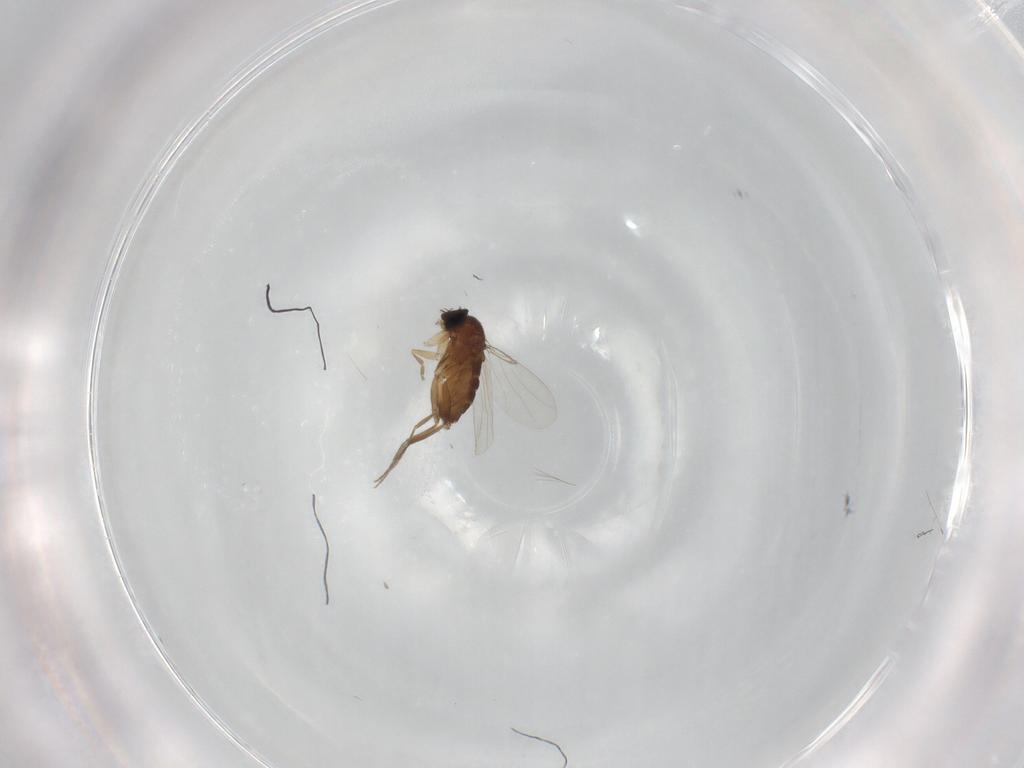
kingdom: Animalia
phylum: Arthropoda
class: Insecta
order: Diptera
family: Phoridae
